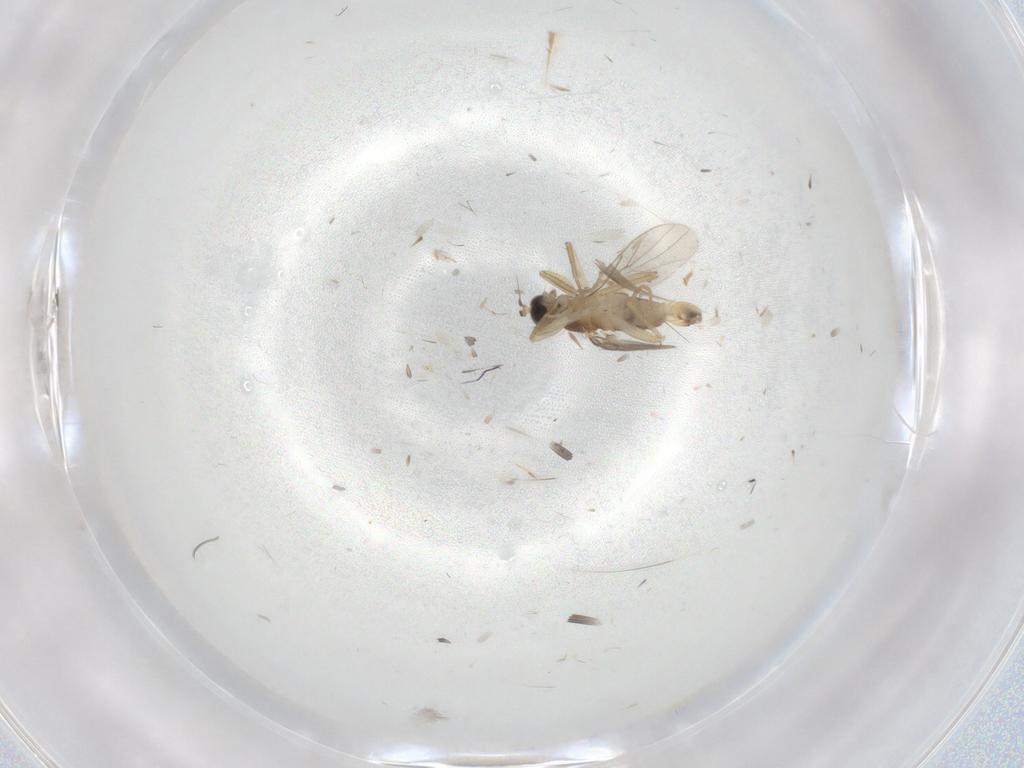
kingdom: Animalia
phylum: Arthropoda
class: Insecta
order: Diptera
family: Hybotidae
